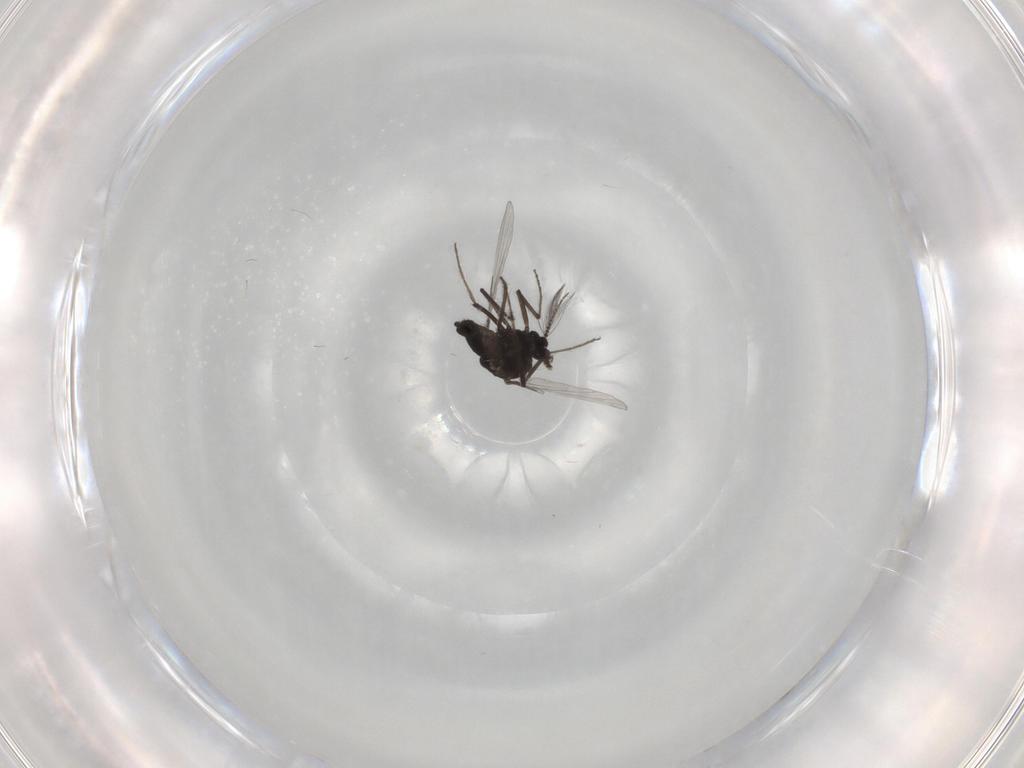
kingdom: Animalia
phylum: Arthropoda
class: Insecta
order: Diptera
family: Ceratopogonidae
